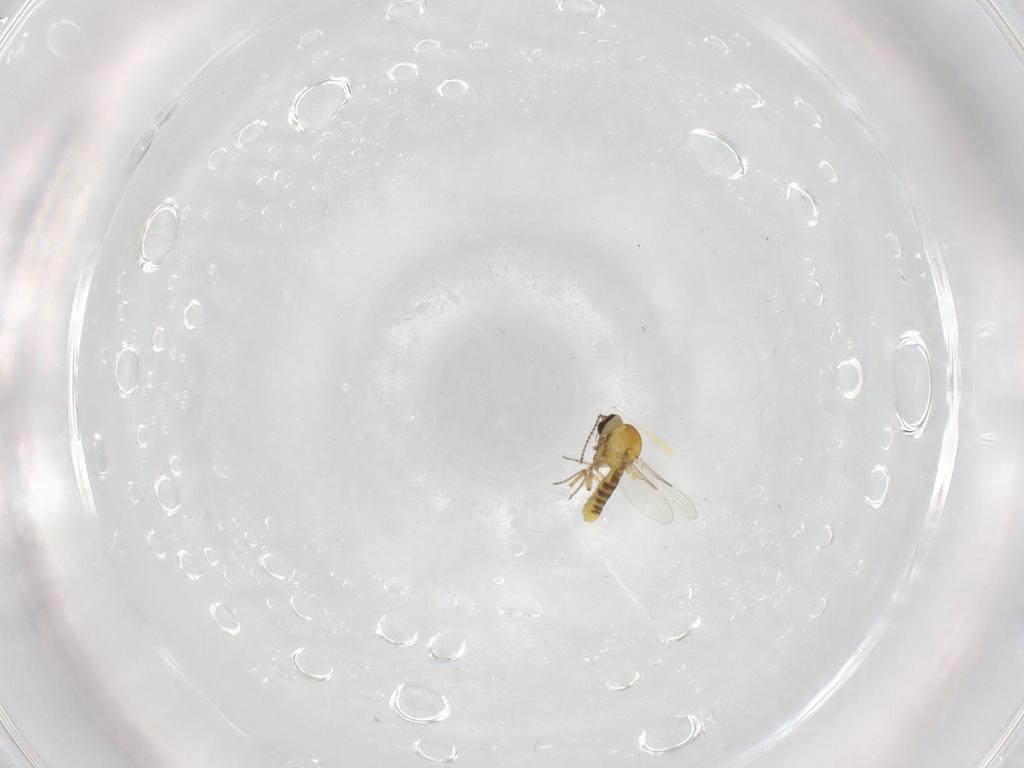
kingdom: Animalia
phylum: Arthropoda
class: Insecta
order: Diptera
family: Ceratopogonidae
